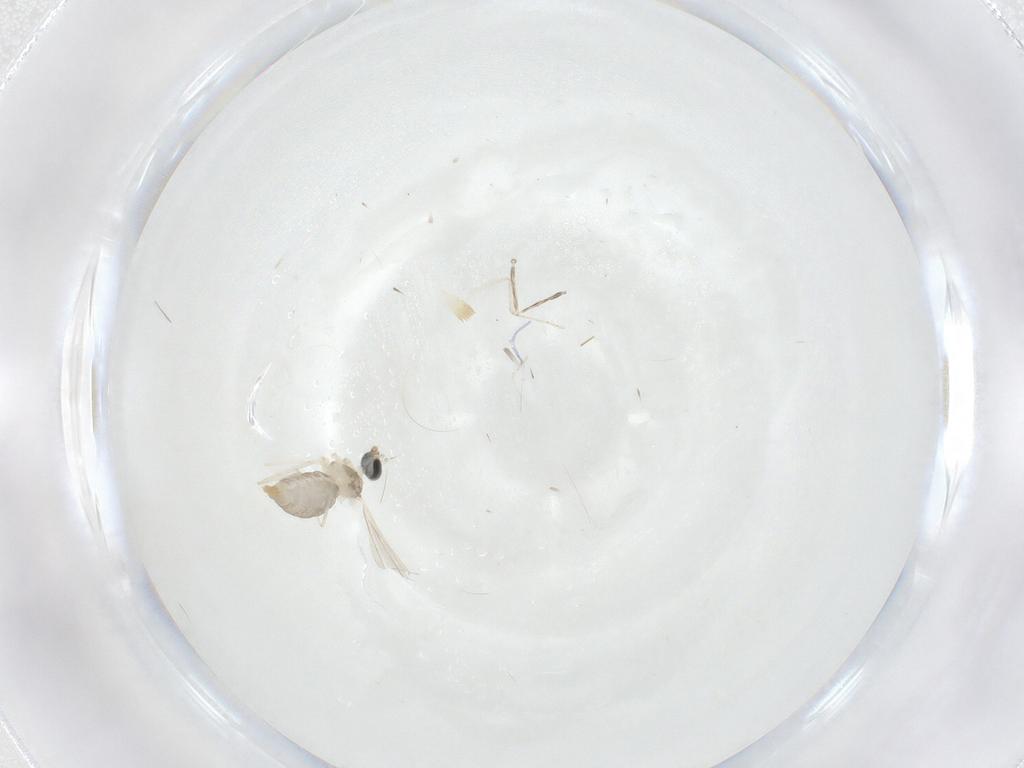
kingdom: Animalia
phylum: Arthropoda
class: Insecta
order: Diptera
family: Cecidomyiidae
